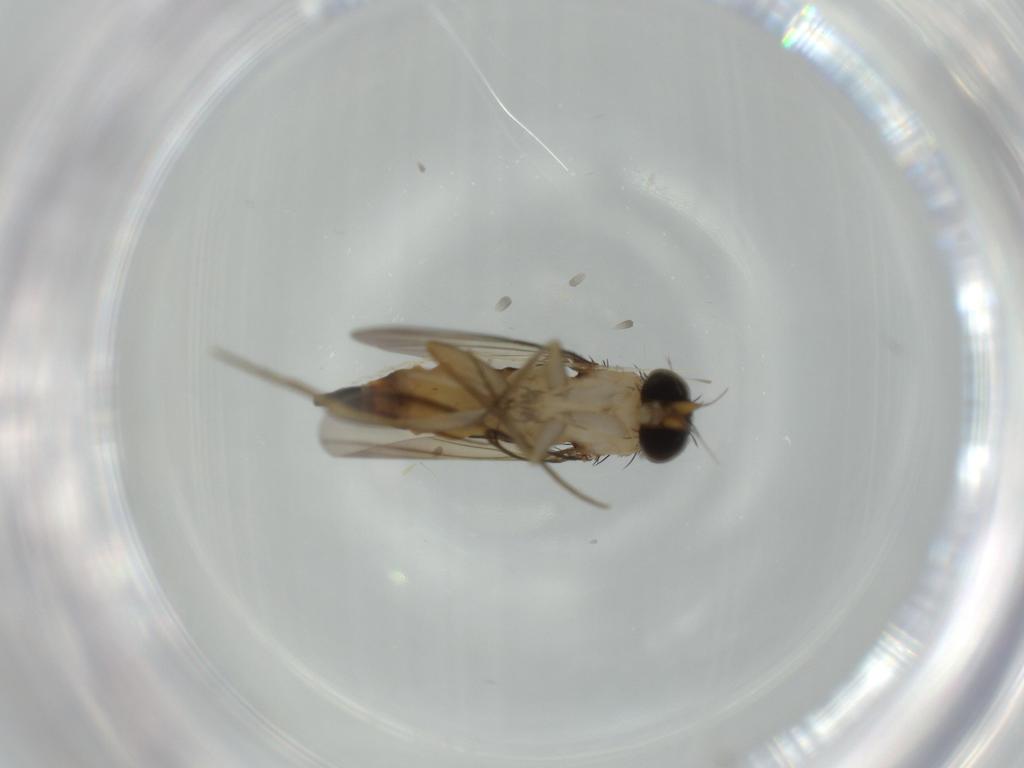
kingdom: Animalia
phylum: Arthropoda
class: Insecta
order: Diptera
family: Phoridae
